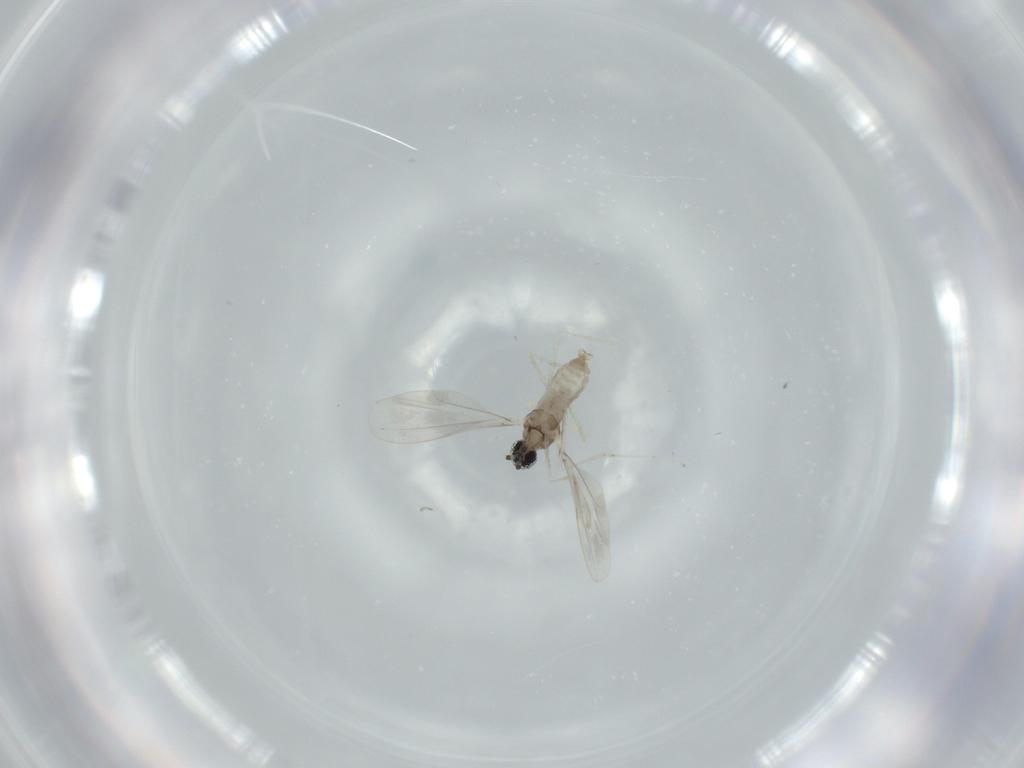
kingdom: Animalia
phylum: Arthropoda
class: Insecta
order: Diptera
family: Cecidomyiidae
